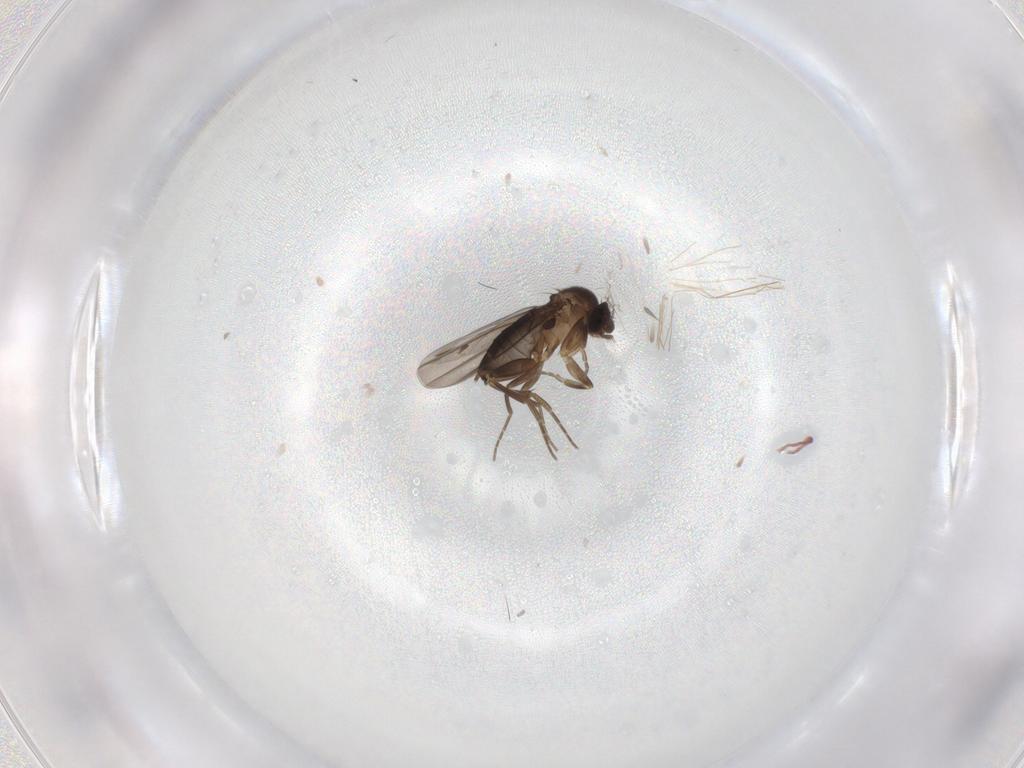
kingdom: Animalia
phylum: Arthropoda
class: Insecta
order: Diptera
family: Phoridae
